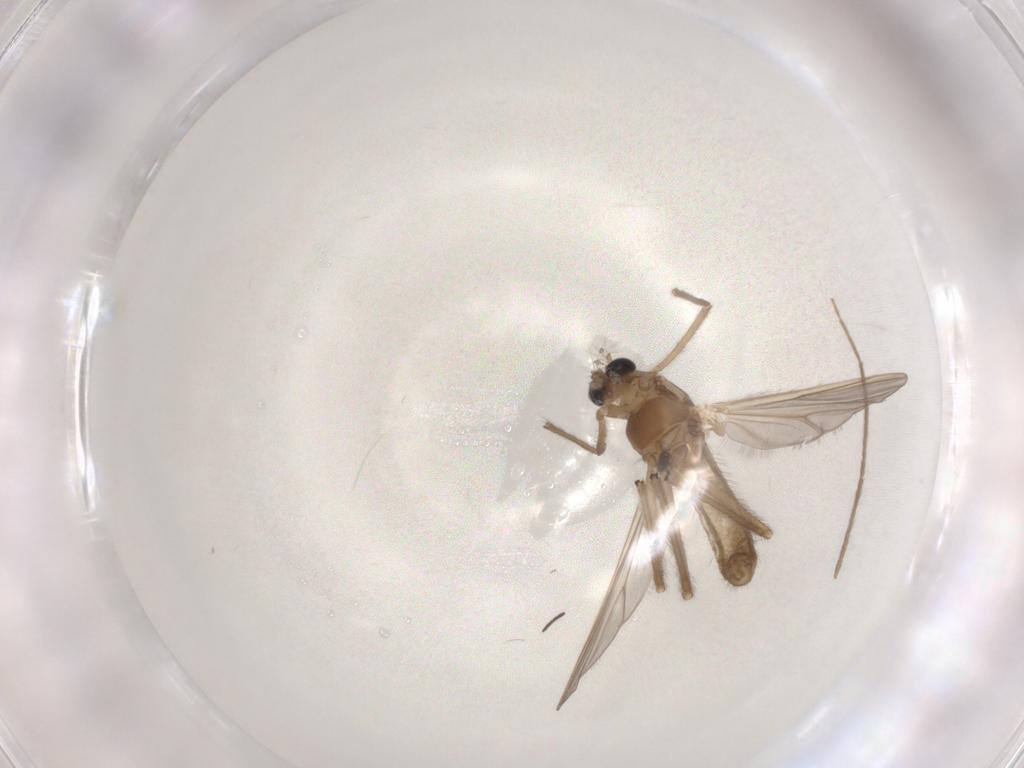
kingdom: Animalia
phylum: Arthropoda
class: Insecta
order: Diptera
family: Chironomidae
